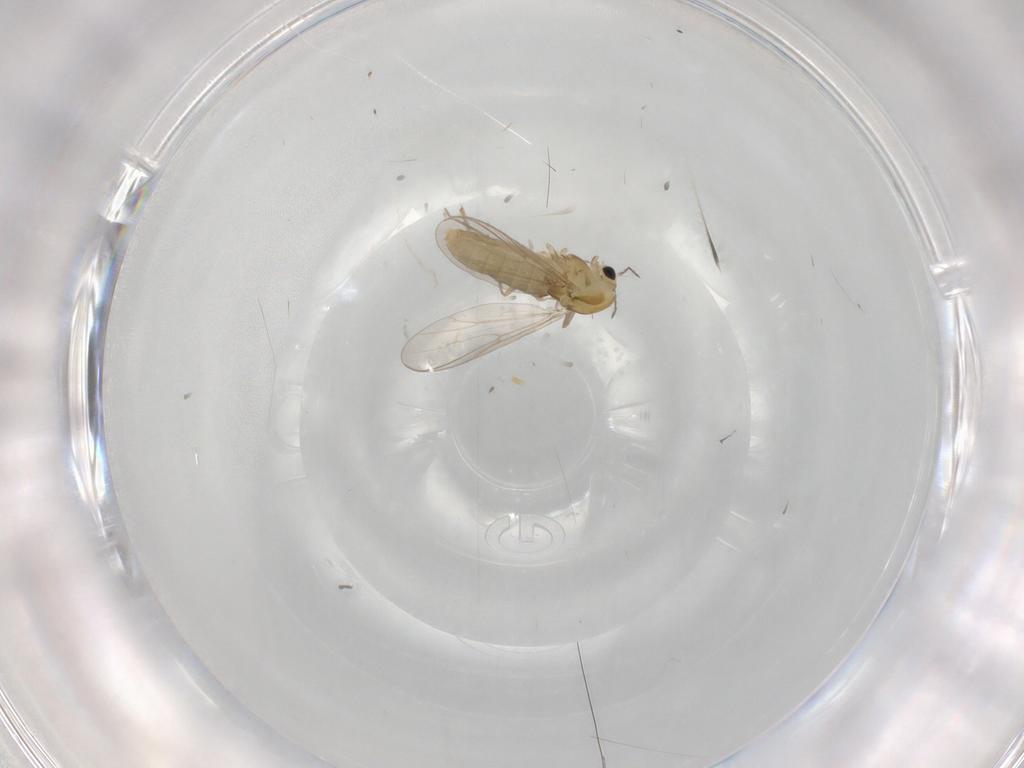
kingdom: Animalia
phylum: Arthropoda
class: Insecta
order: Diptera
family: Chironomidae
